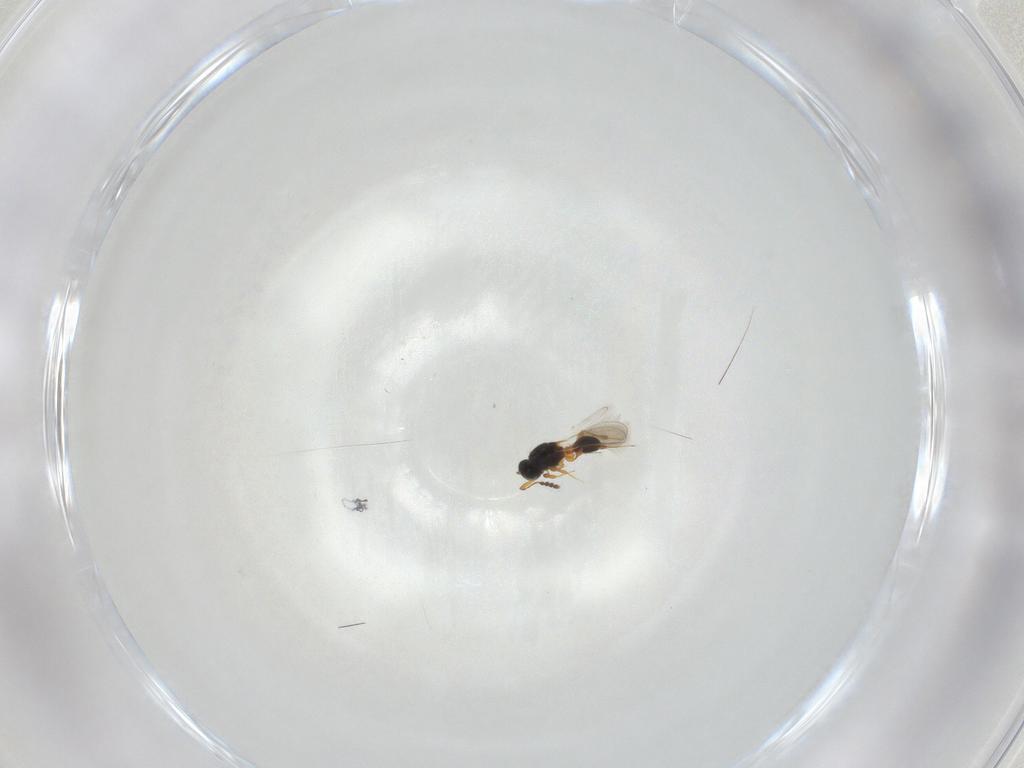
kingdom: Animalia
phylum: Arthropoda
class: Insecta
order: Hymenoptera
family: Platygastridae
